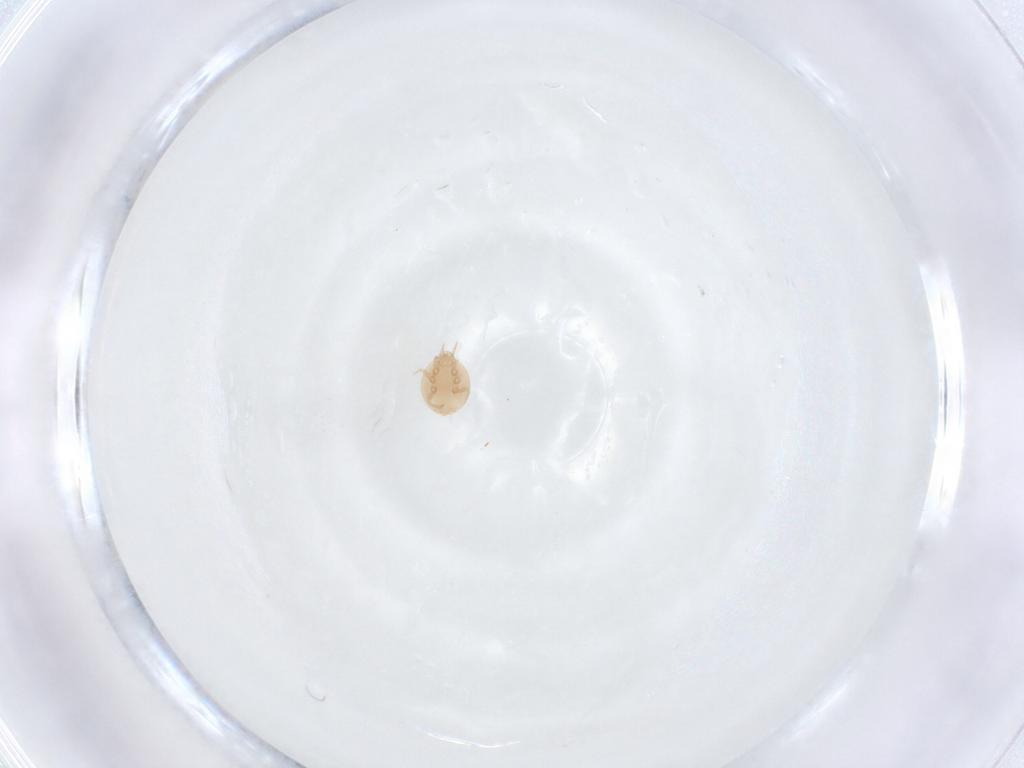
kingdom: Animalia
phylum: Arthropoda
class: Arachnida
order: Mesostigmata
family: Trematuridae
